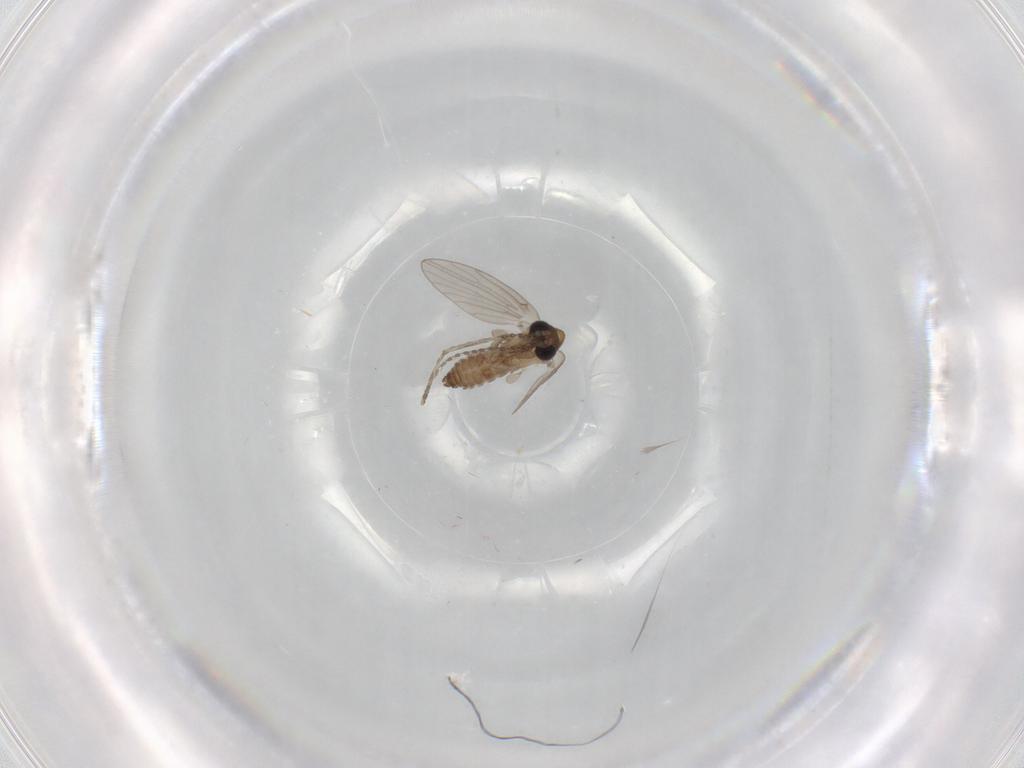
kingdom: Animalia
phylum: Arthropoda
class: Insecta
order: Diptera
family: Psychodidae
